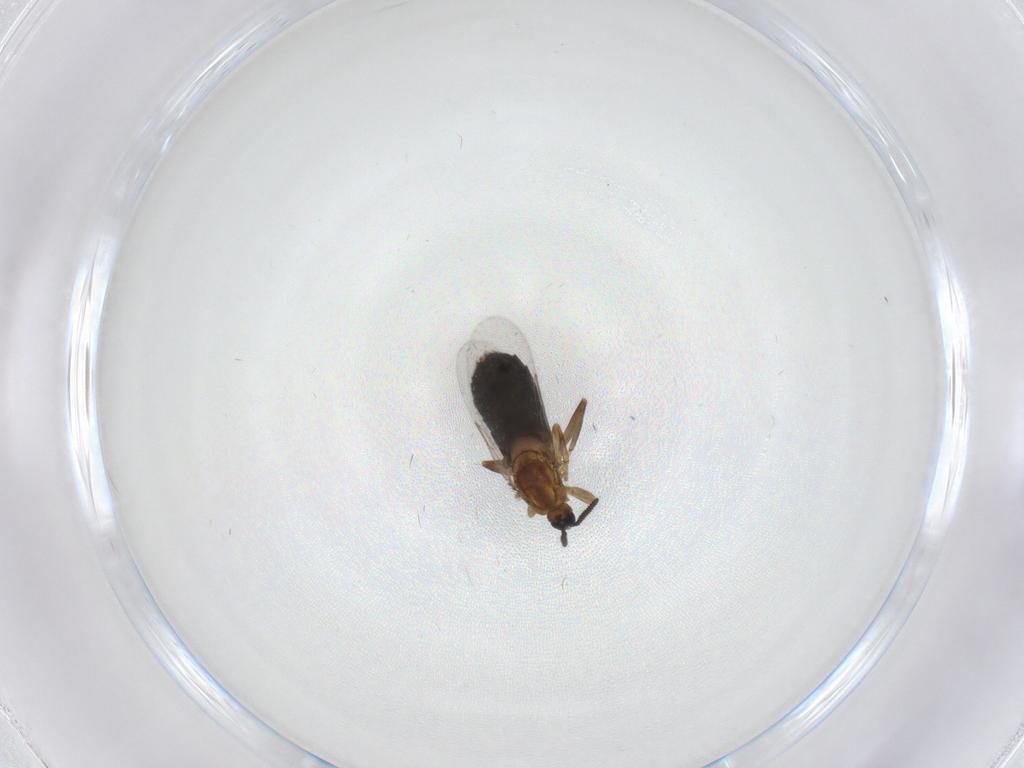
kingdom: Animalia
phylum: Arthropoda
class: Insecta
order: Diptera
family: Scatopsidae
